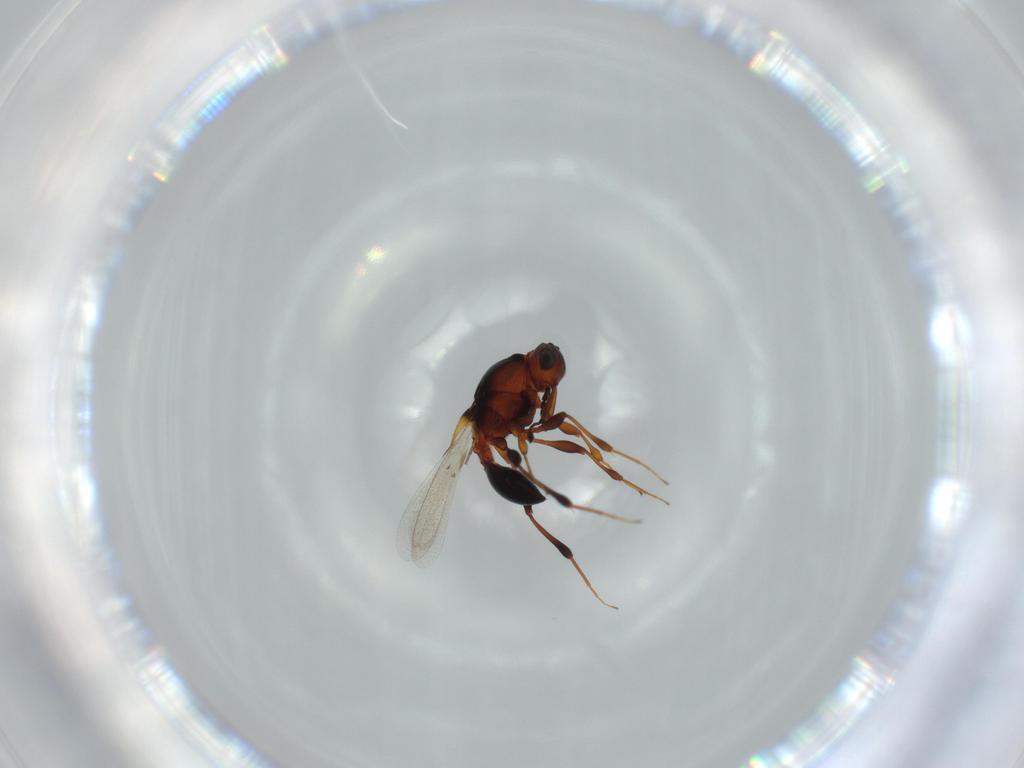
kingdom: Animalia
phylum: Arthropoda
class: Insecta
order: Hymenoptera
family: Platygastridae
